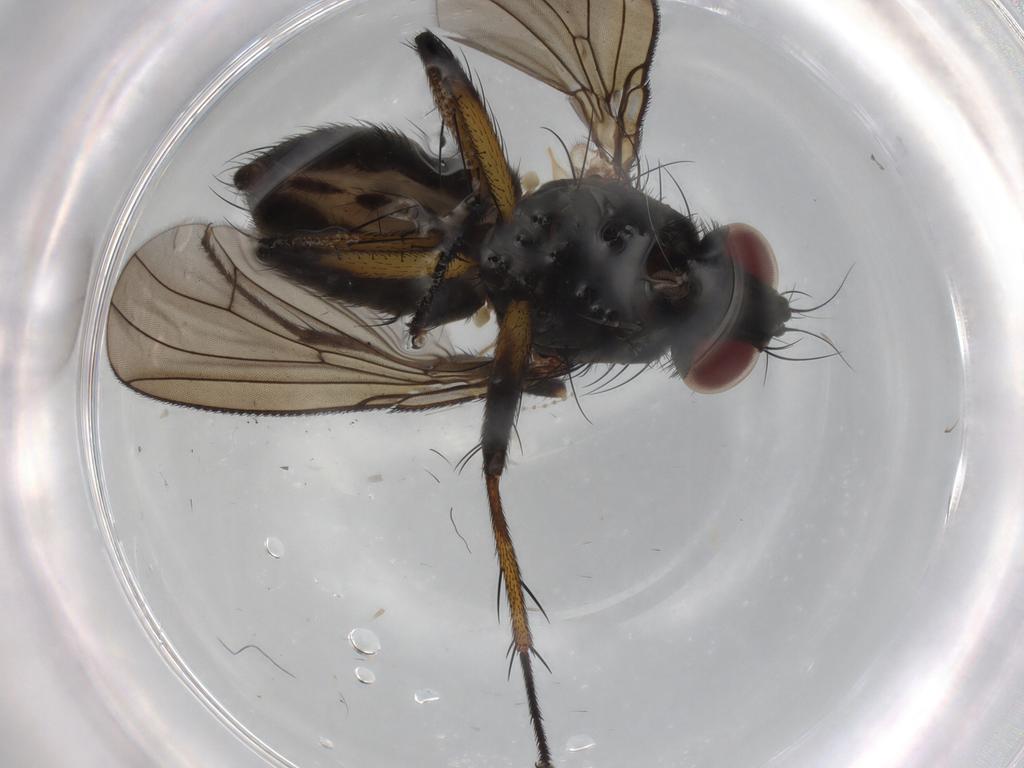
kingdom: Animalia
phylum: Arthropoda
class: Insecta
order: Diptera
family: Muscidae
